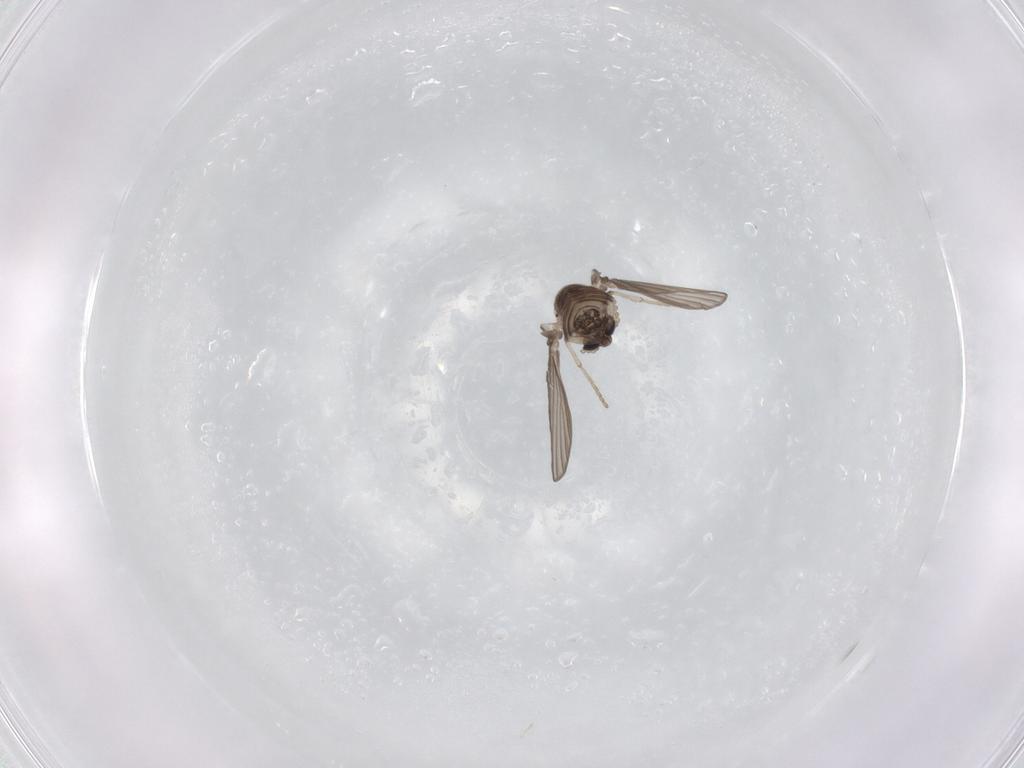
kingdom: Animalia
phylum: Arthropoda
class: Insecta
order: Diptera
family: Psychodidae
